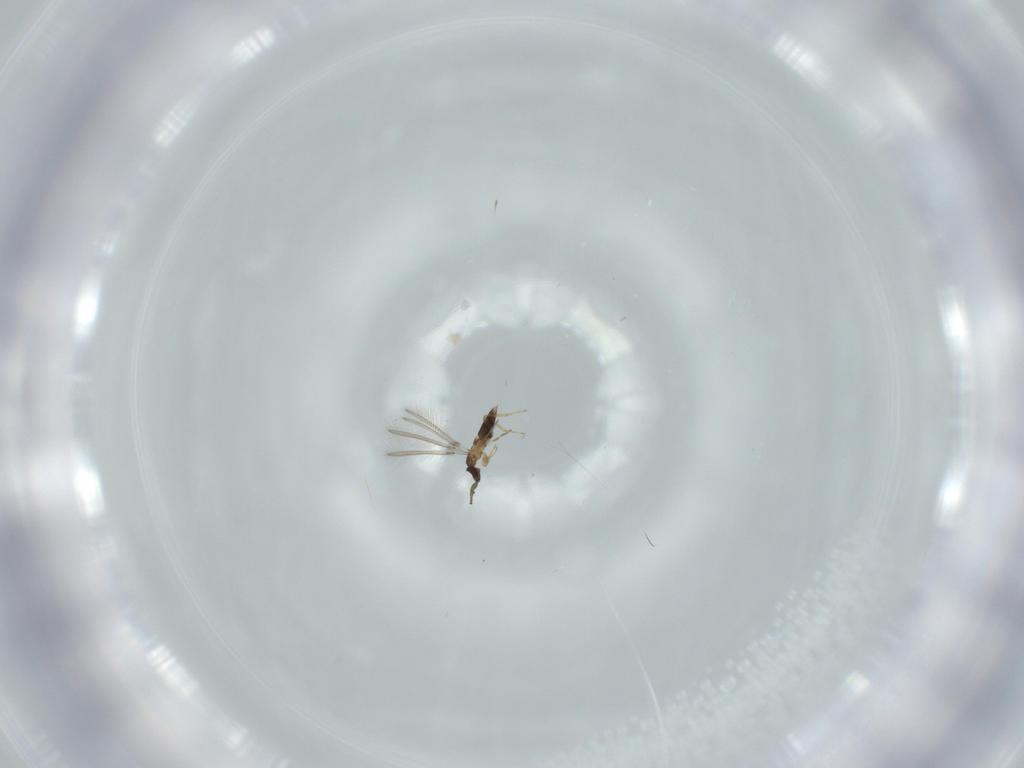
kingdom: Animalia
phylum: Arthropoda
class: Insecta
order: Hymenoptera
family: Mymaridae
